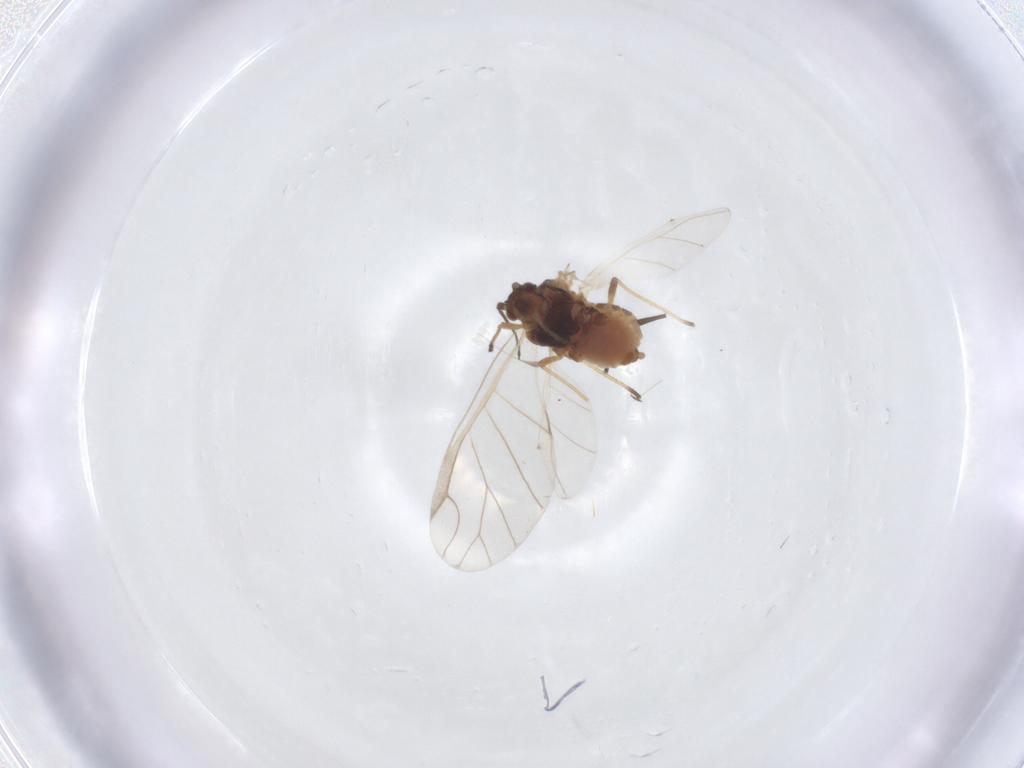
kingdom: Animalia
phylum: Arthropoda
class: Insecta
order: Hemiptera
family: Aphididae
